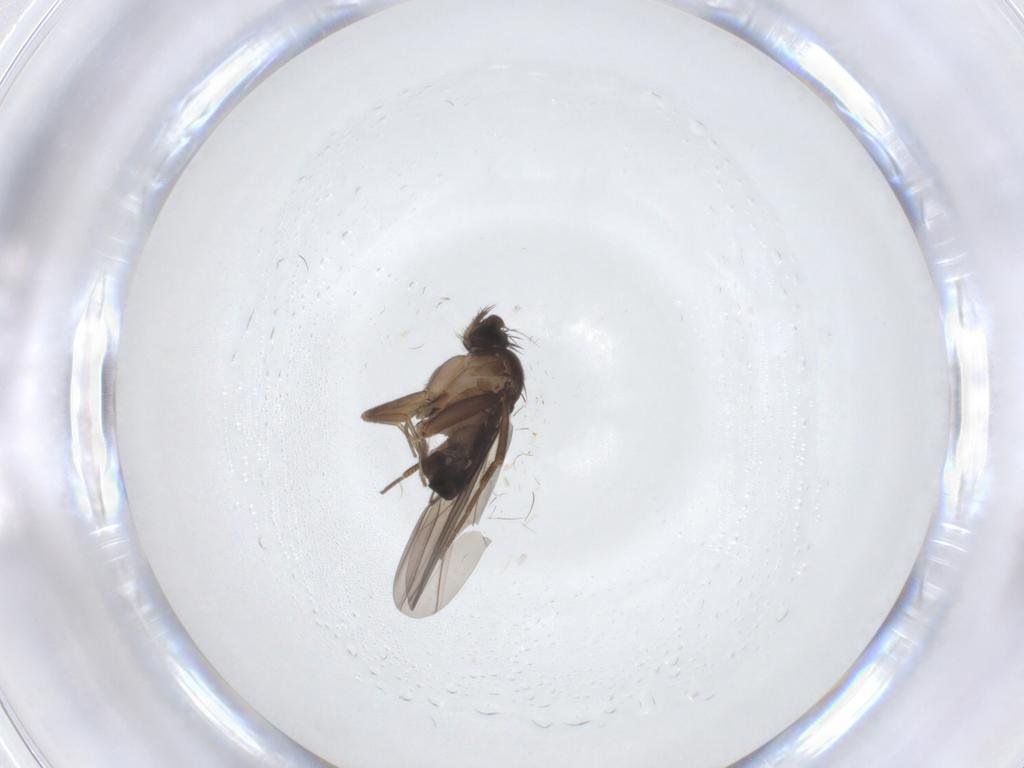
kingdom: Animalia
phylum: Arthropoda
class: Insecta
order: Diptera
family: Phoridae
